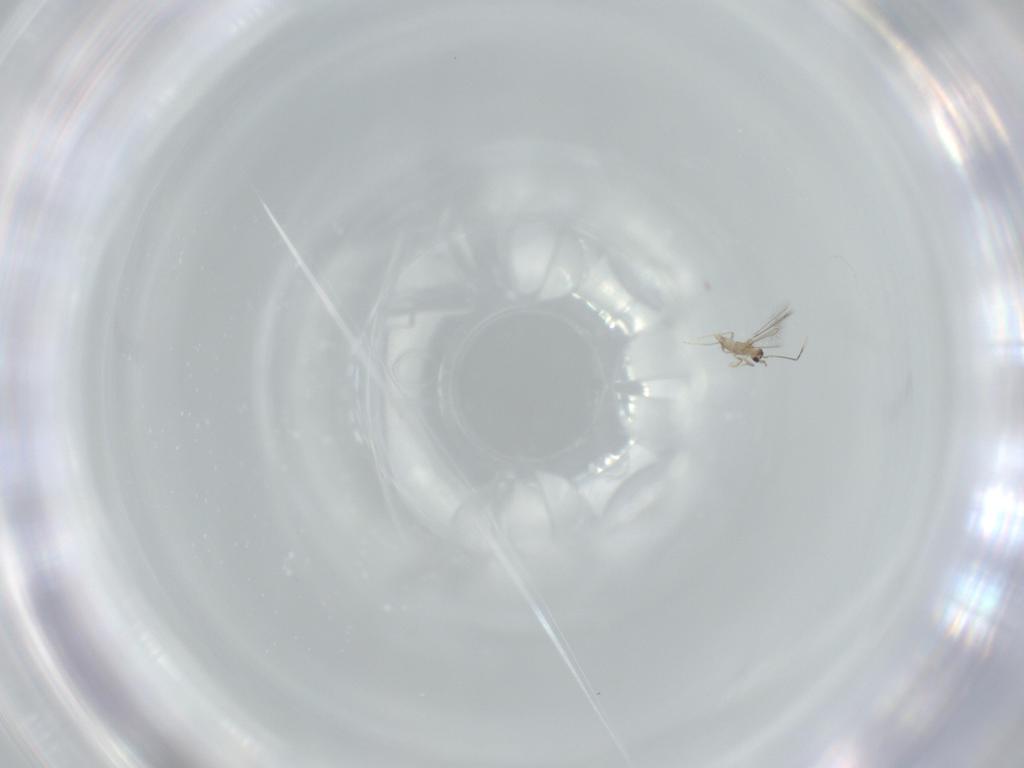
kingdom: Animalia
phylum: Arthropoda
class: Insecta
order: Hymenoptera
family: Mymaridae
